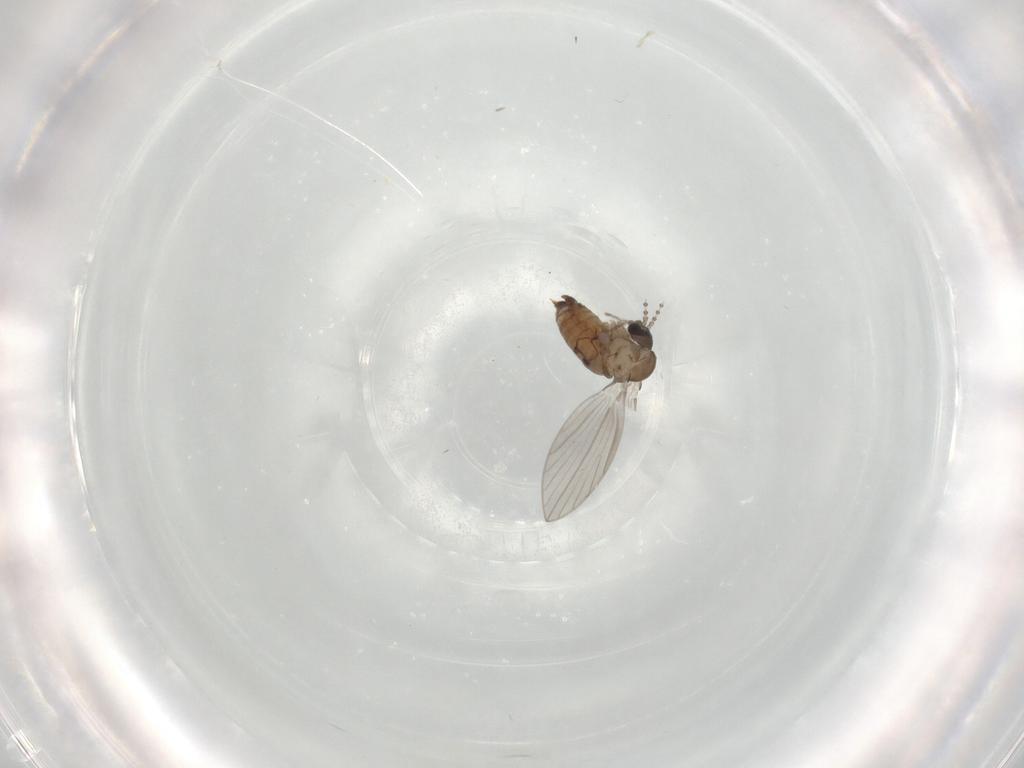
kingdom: Animalia
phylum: Arthropoda
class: Insecta
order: Diptera
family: Psychodidae
